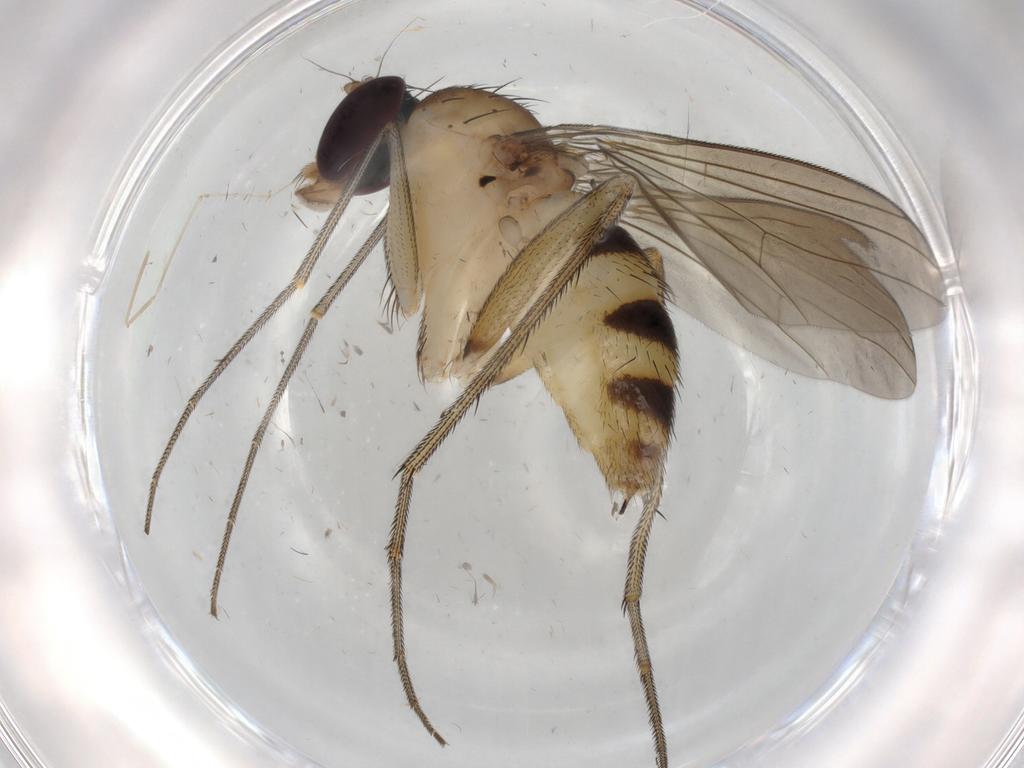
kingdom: Animalia
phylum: Arthropoda
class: Insecta
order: Diptera
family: Dolichopodidae
